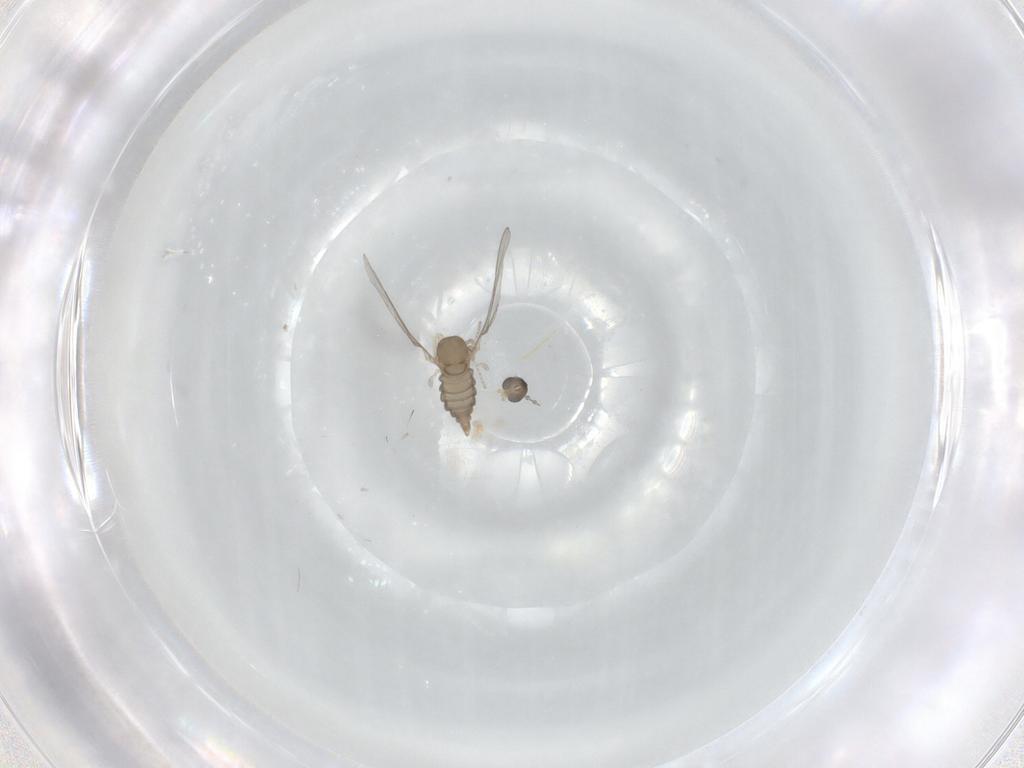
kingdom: Animalia
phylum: Arthropoda
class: Insecta
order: Diptera
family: Cecidomyiidae
